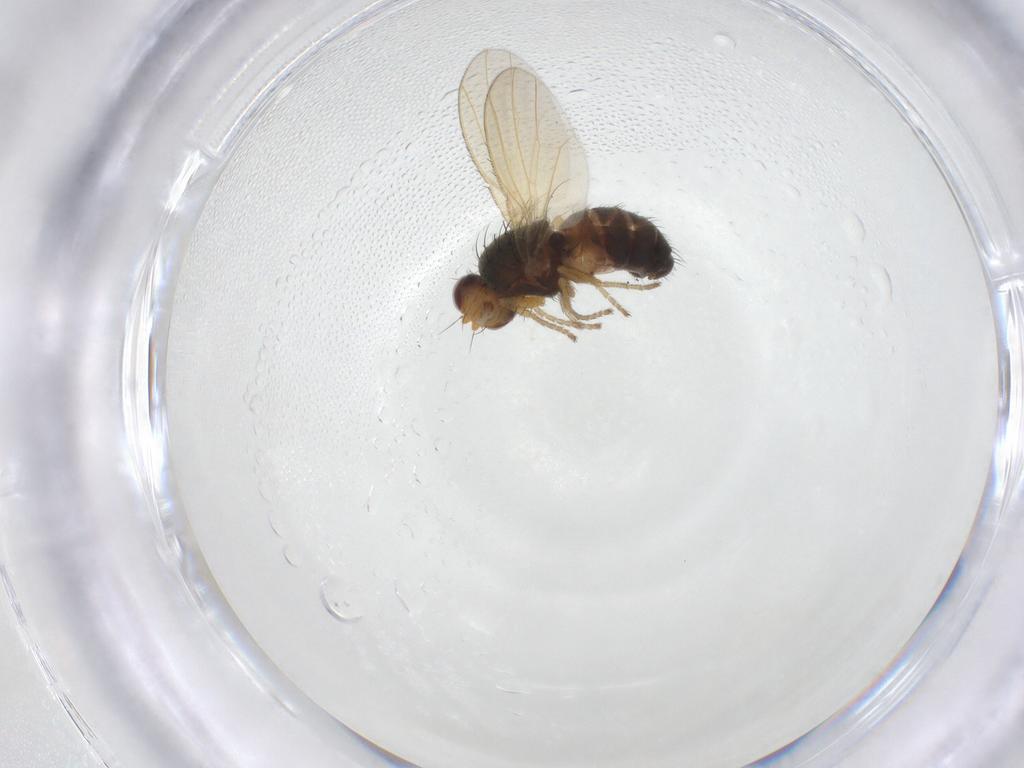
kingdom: Animalia
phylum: Arthropoda
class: Insecta
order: Diptera
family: Heleomyzidae
